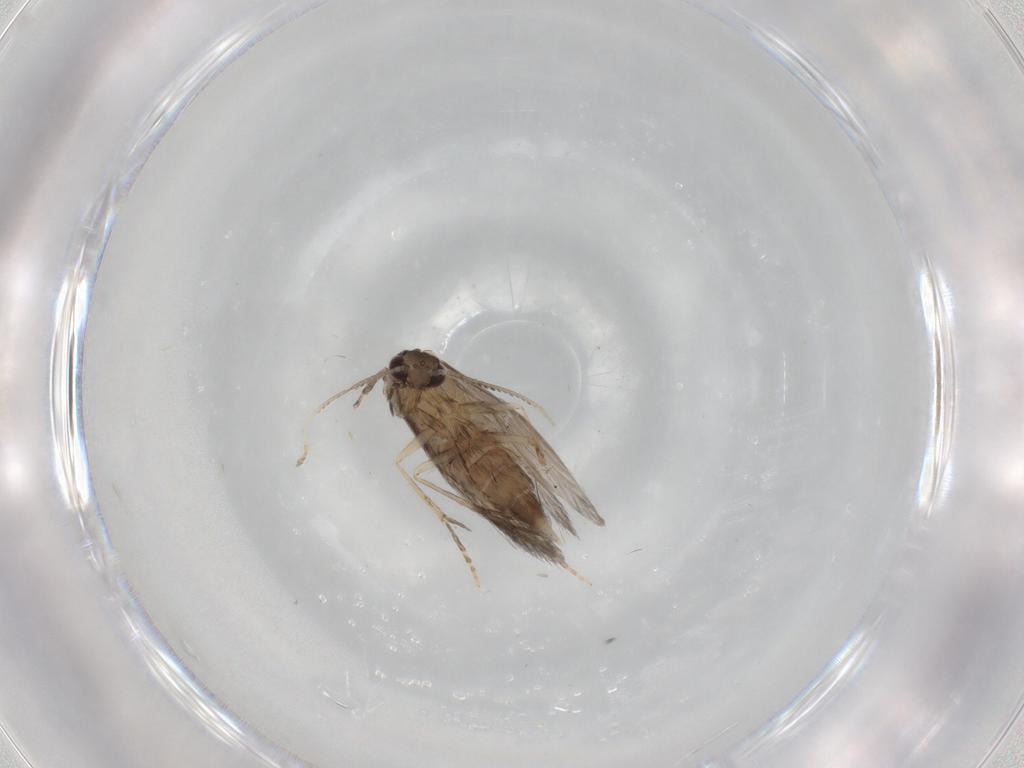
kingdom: Animalia
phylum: Arthropoda
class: Insecta
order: Trichoptera
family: Hydroptilidae
